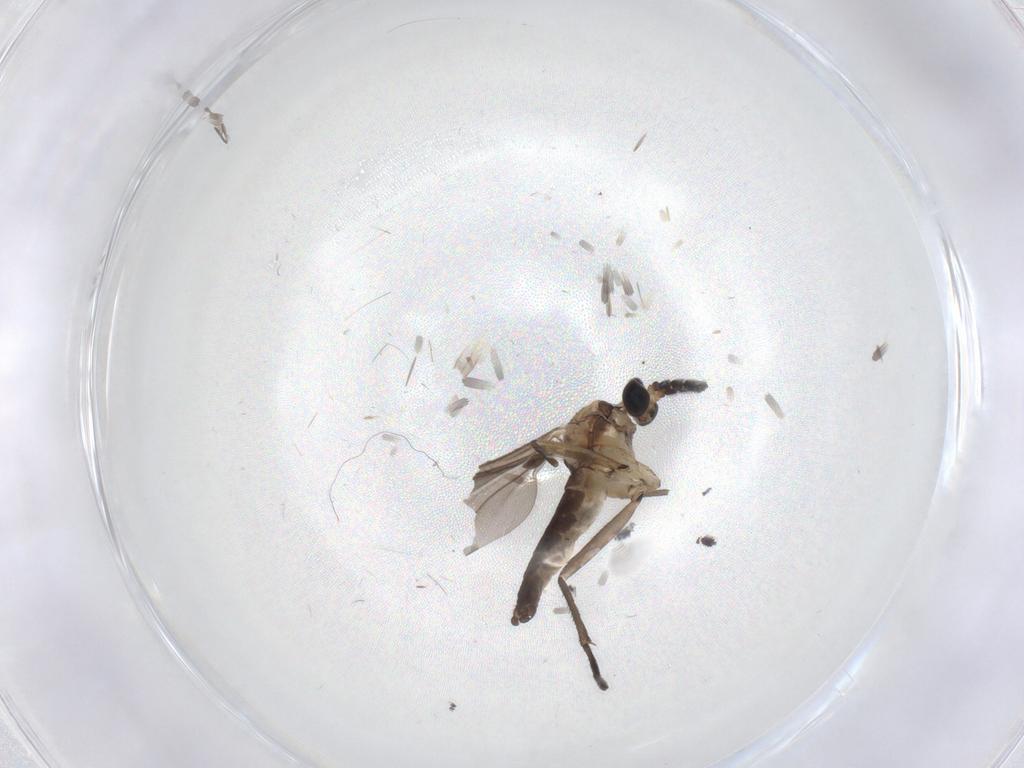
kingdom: Animalia
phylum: Arthropoda
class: Insecta
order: Diptera
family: Sciaridae
